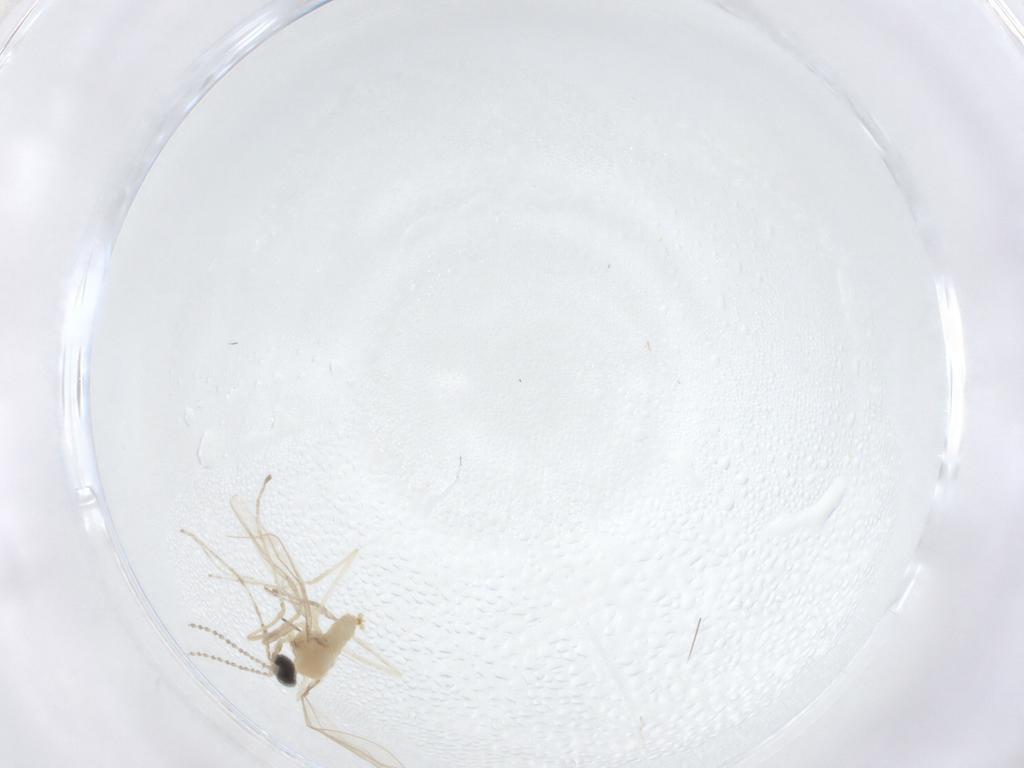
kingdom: Animalia
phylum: Arthropoda
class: Insecta
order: Diptera
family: Cecidomyiidae
